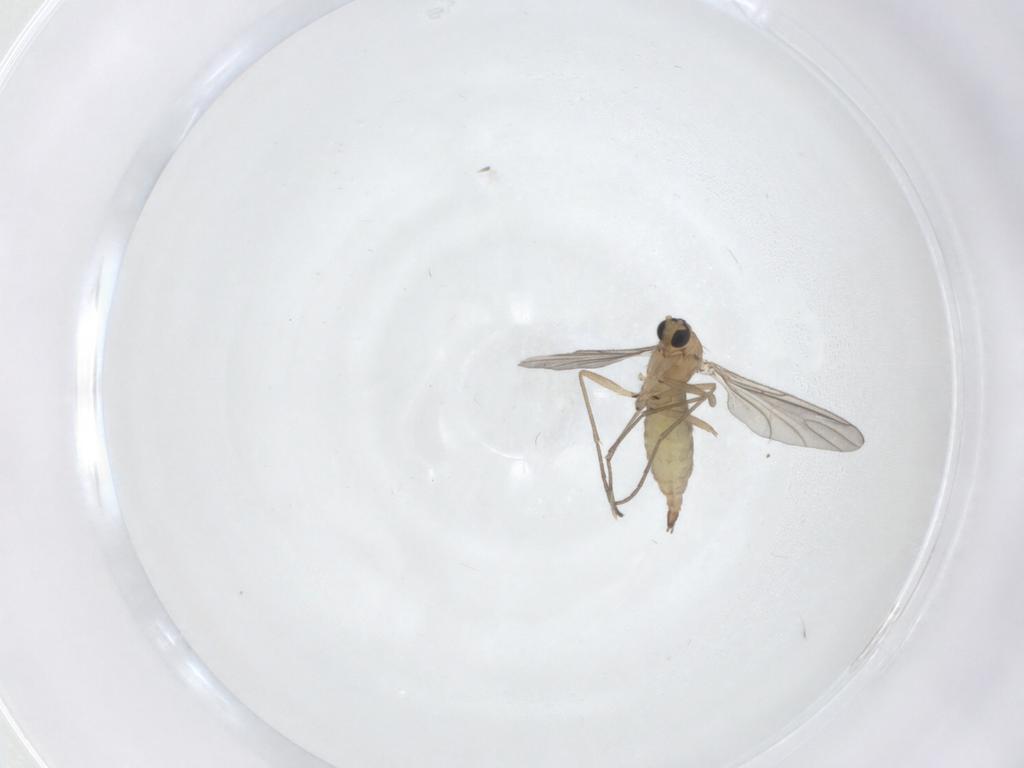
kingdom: Animalia
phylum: Arthropoda
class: Insecta
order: Diptera
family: Sciaridae
